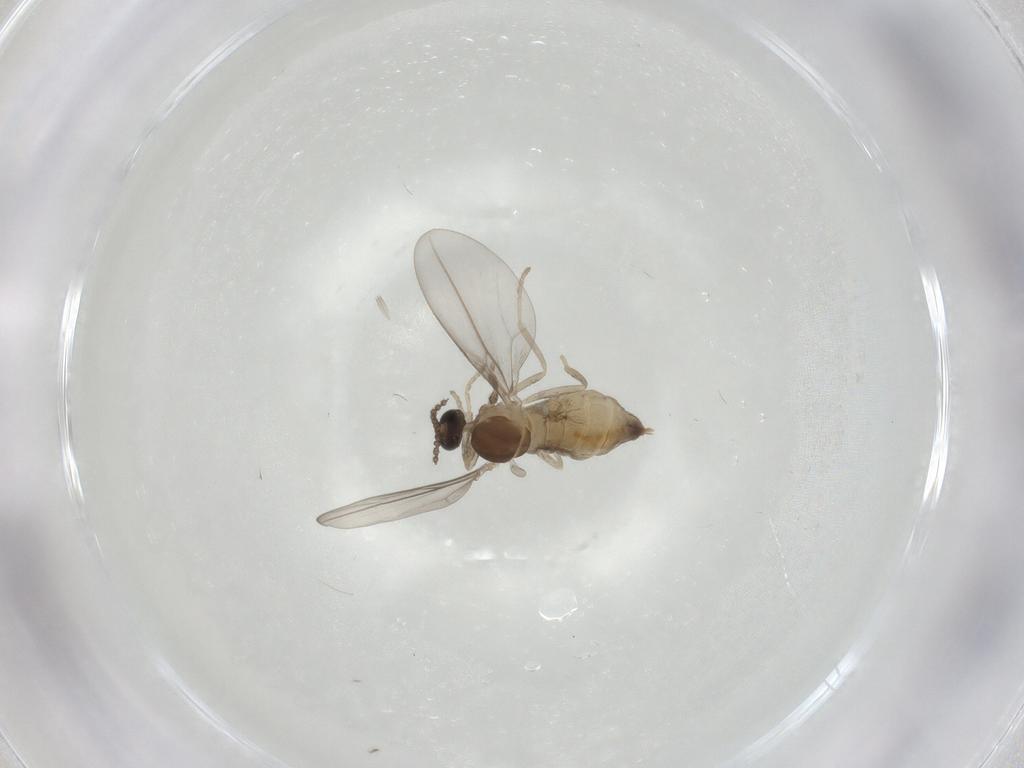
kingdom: Animalia
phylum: Arthropoda
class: Insecta
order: Diptera
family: Cecidomyiidae
